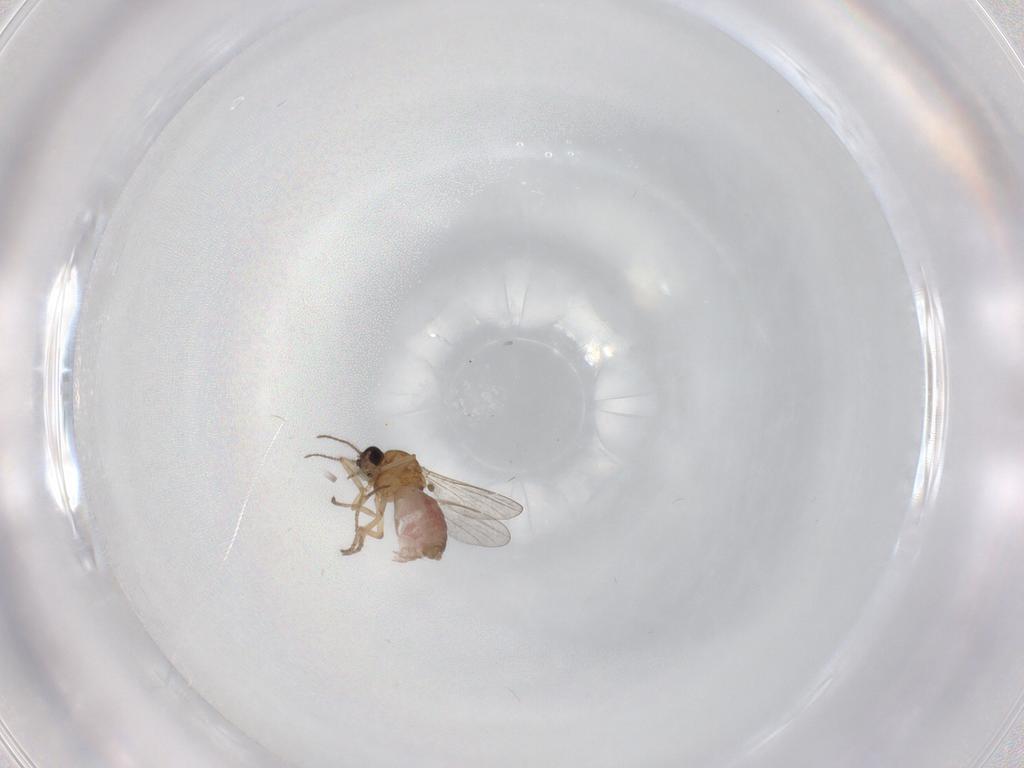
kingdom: Animalia
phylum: Arthropoda
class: Insecta
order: Diptera
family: Ceratopogonidae
